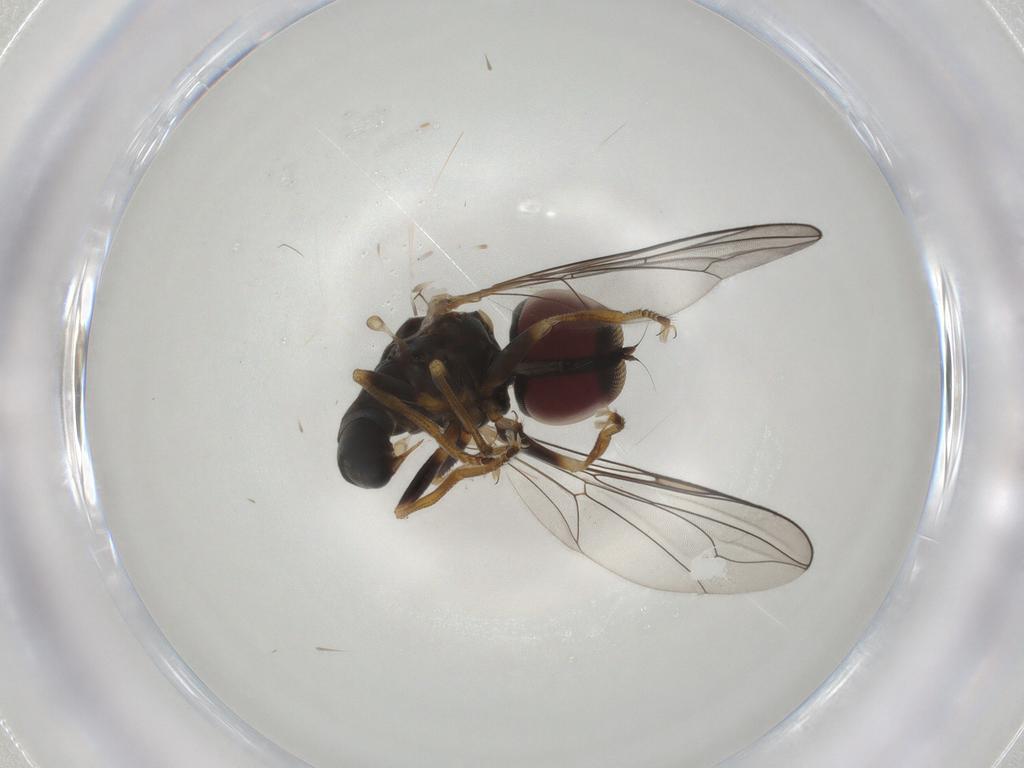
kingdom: Animalia
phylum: Arthropoda
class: Insecta
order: Diptera
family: Pipunculidae
